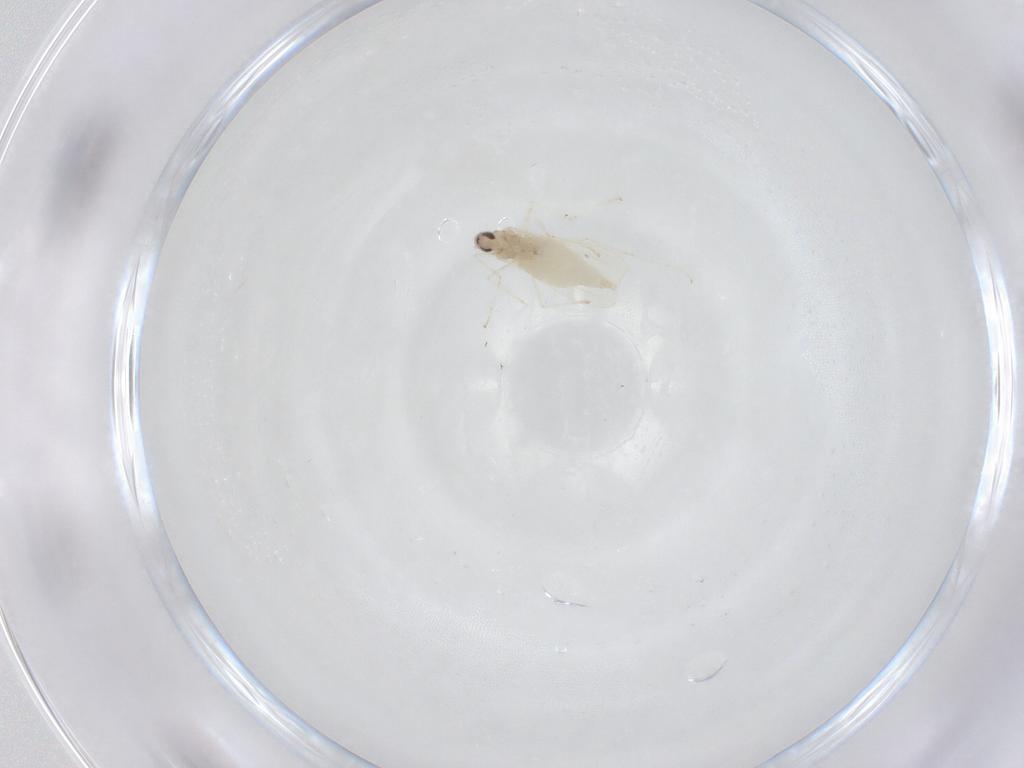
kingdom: Animalia
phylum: Arthropoda
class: Insecta
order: Diptera
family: Cecidomyiidae
